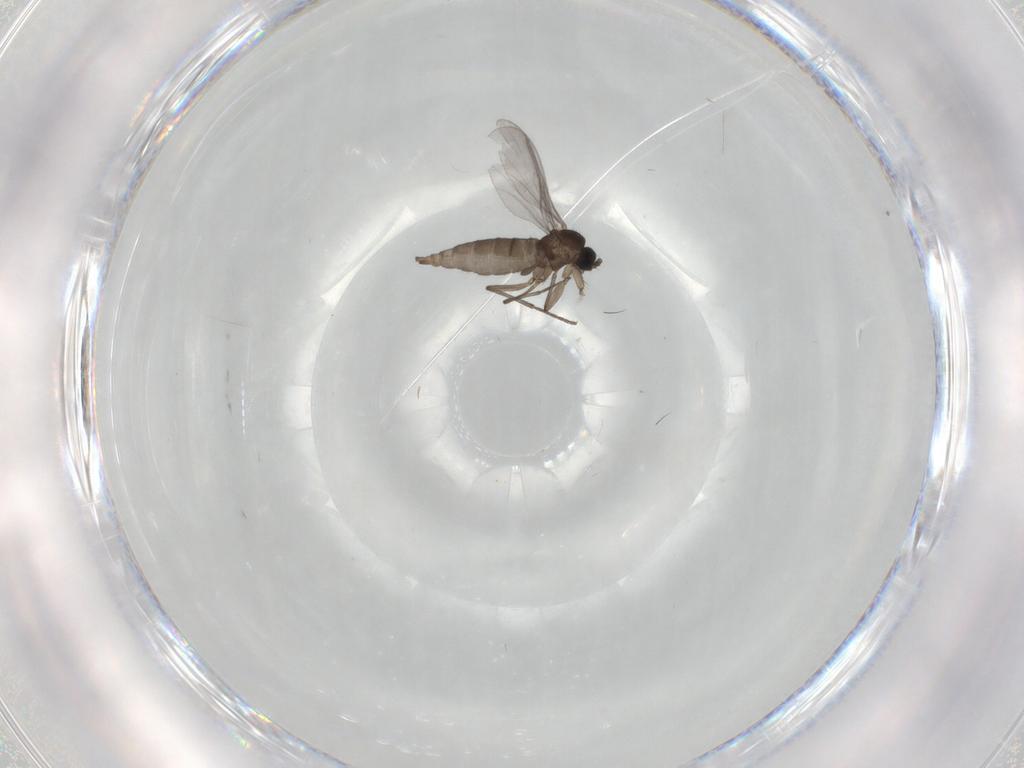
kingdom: Animalia
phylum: Arthropoda
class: Insecta
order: Diptera
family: Sciaridae
